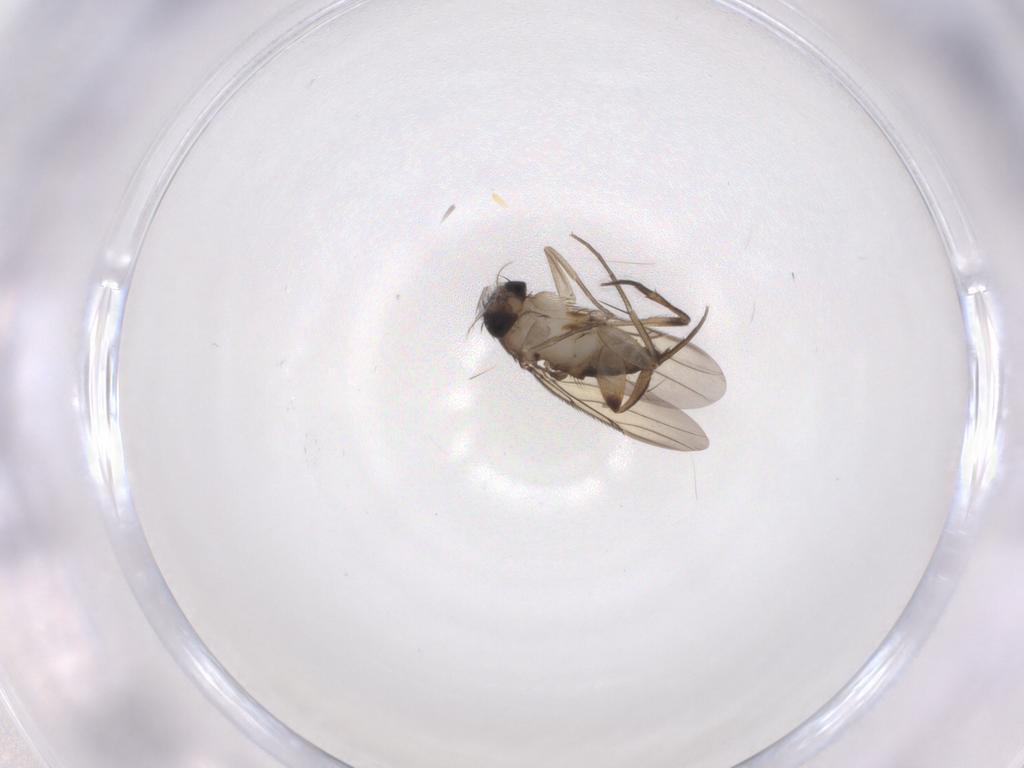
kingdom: Animalia
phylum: Arthropoda
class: Insecta
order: Diptera
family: Phoridae
